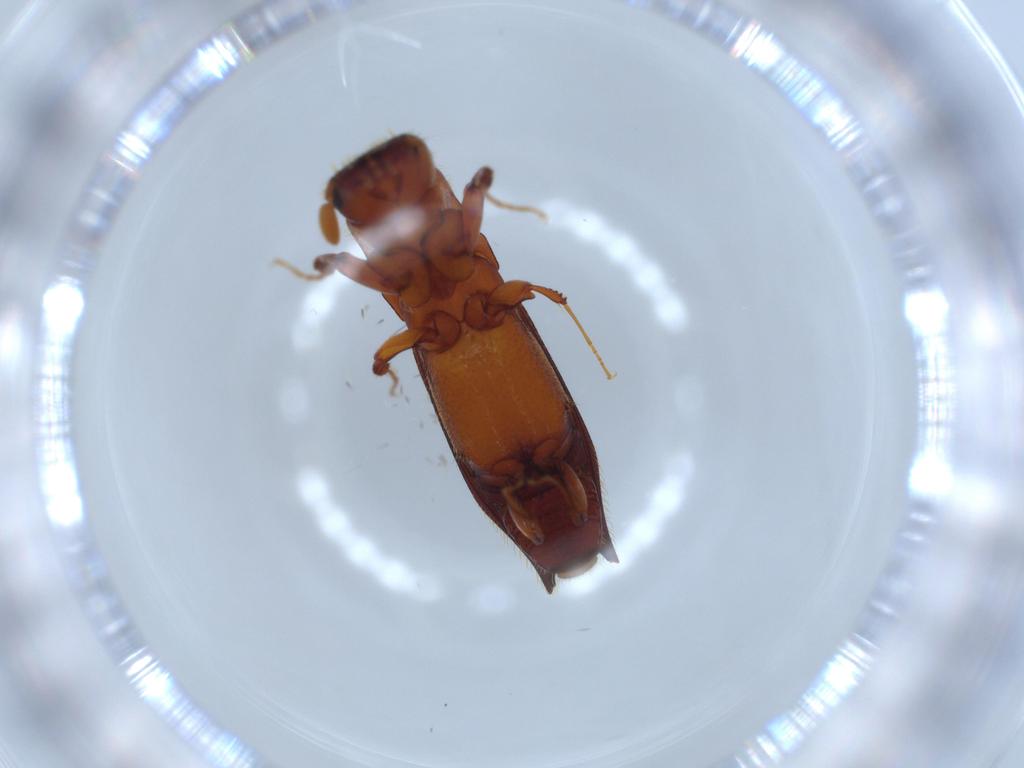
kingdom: Animalia
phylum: Arthropoda
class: Insecta
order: Coleoptera
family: Curculionidae
